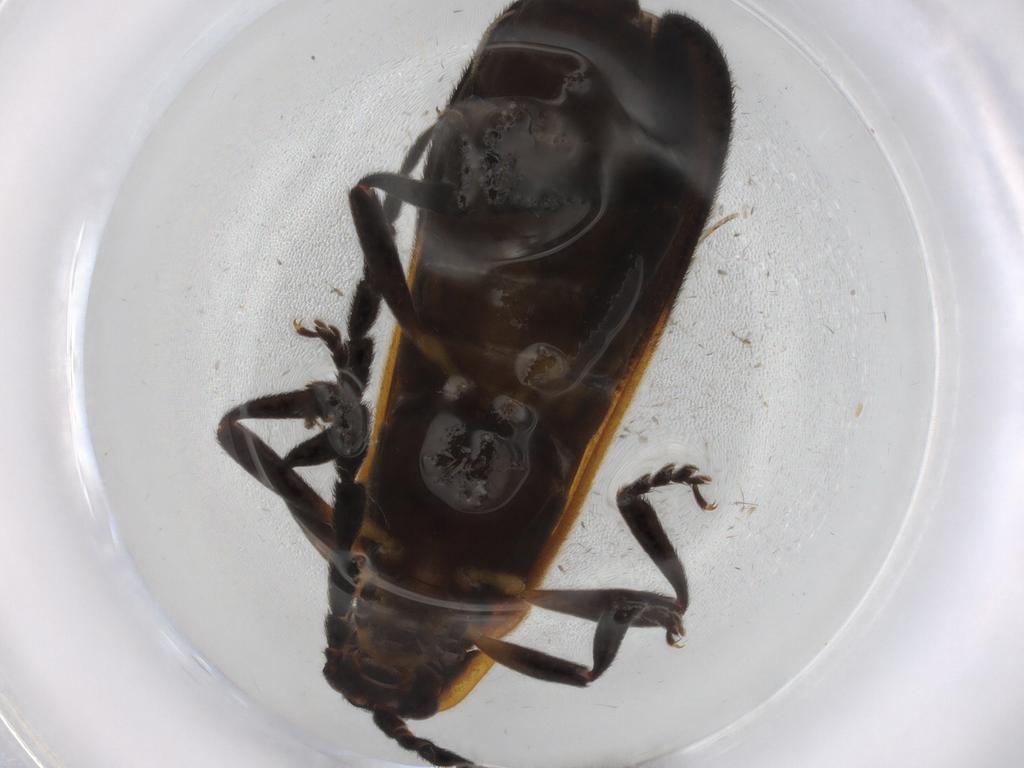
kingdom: Animalia
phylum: Arthropoda
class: Insecta
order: Coleoptera
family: Lycidae
